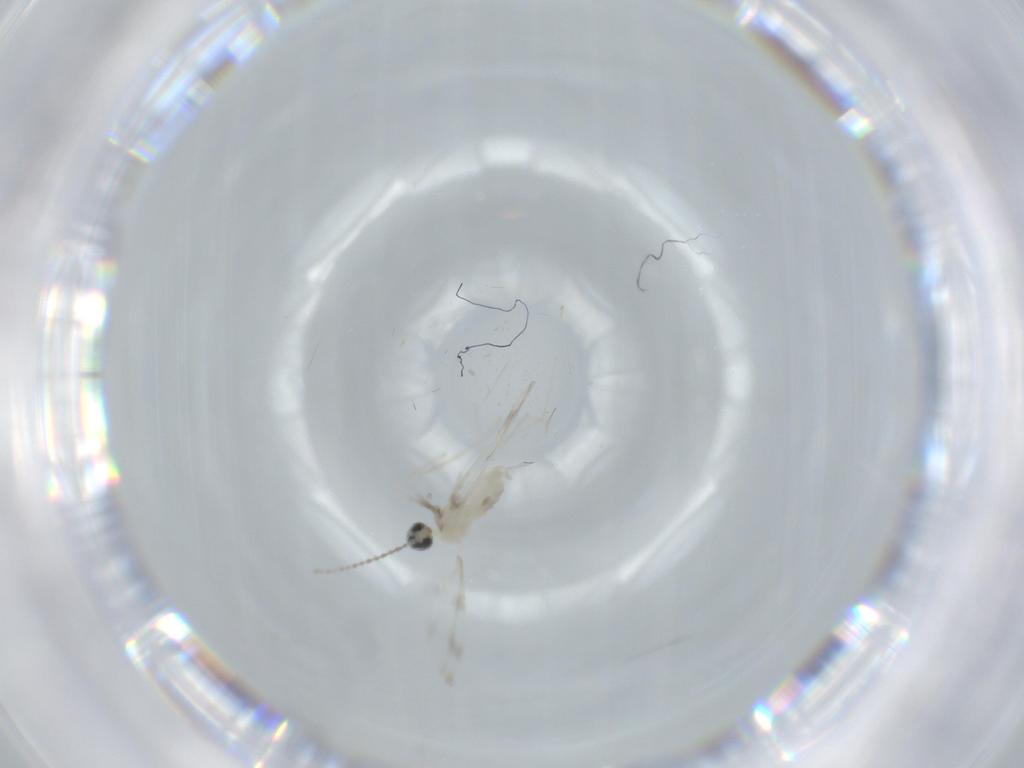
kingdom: Animalia
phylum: Arthropoda
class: Insecta
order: Diptera
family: Cecidomyiidae
